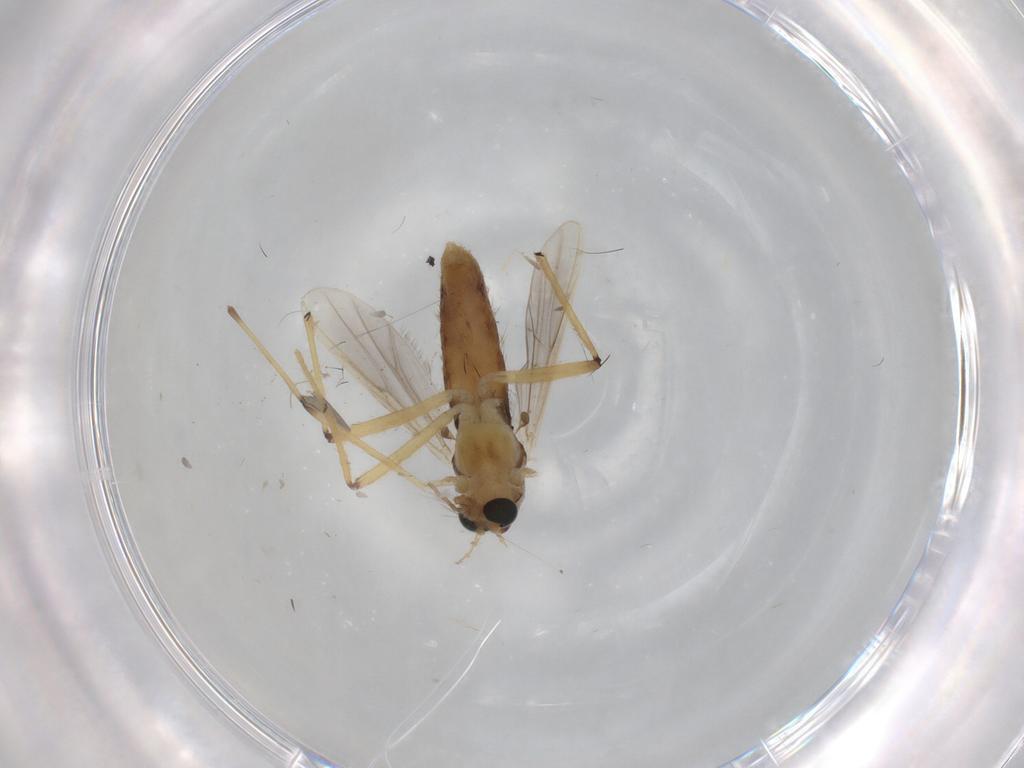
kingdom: Animalia
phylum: Arthropoda
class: Insecta
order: Diptera
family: Chironomidae
